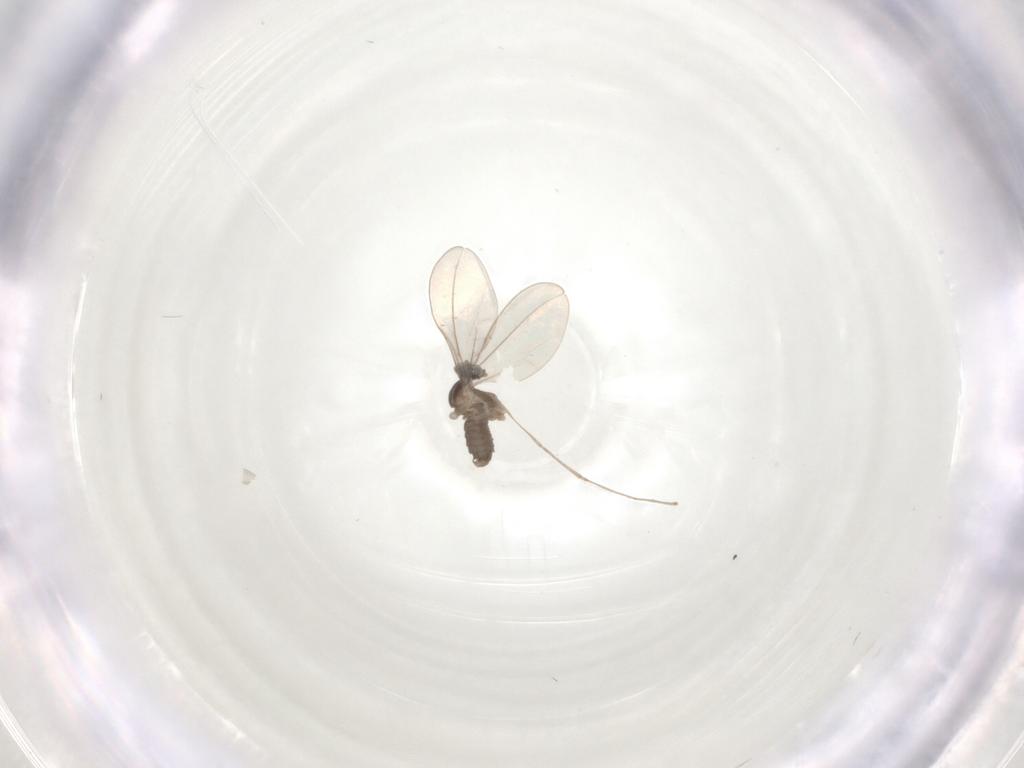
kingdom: Animalia
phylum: Arthropoda
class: Insecta
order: Diptera
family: Cecidomyiidae
